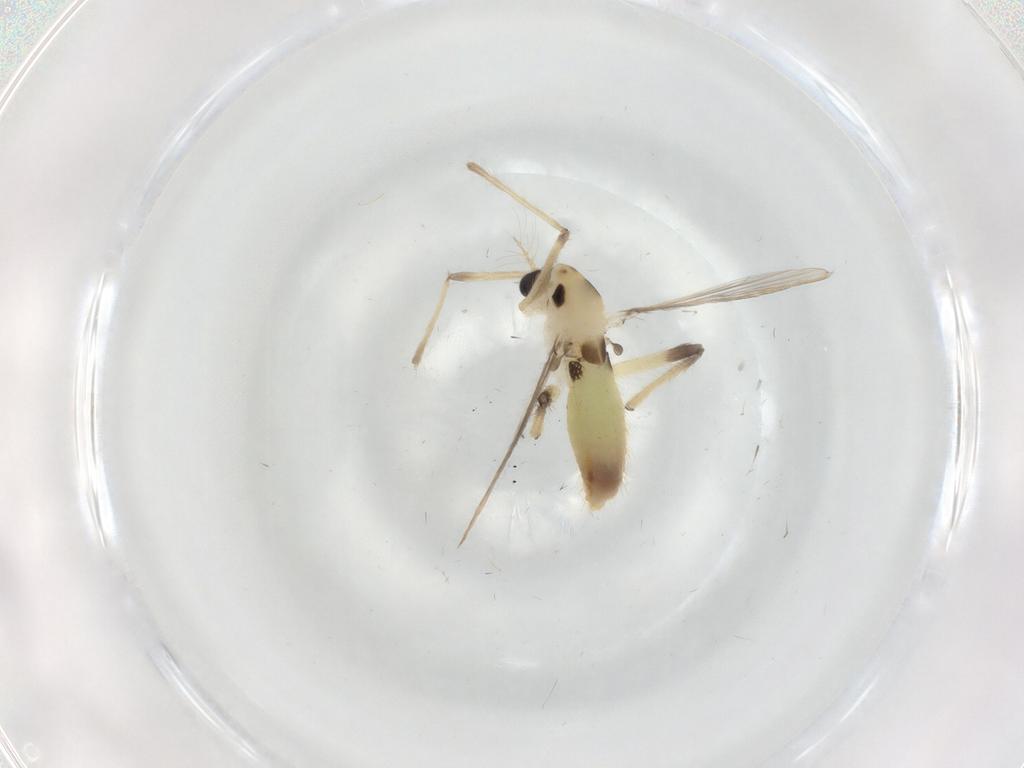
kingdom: Animalia
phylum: Arthropoda
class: Insecta
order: Diptera
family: Chironomidae
